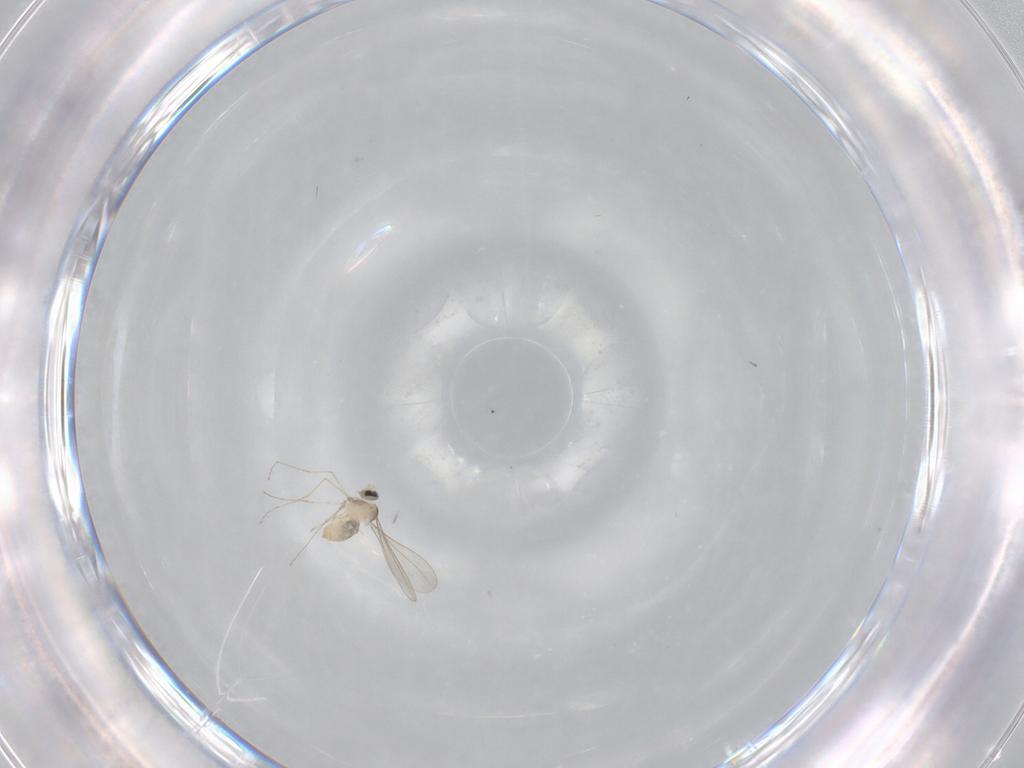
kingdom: Animalia
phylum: Arthropoda
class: Insecta
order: Diptera
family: Cecidomyiidae
